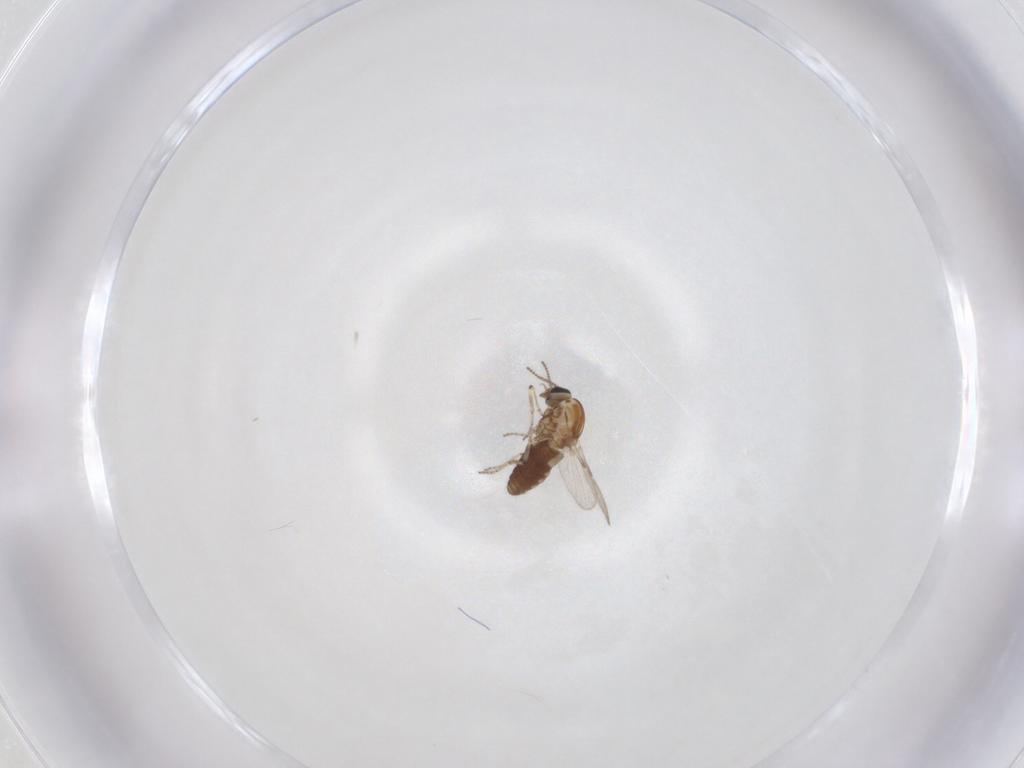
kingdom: Animalia
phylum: Arthropoda
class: Insecta
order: Diptera
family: Ceratopogonidae
